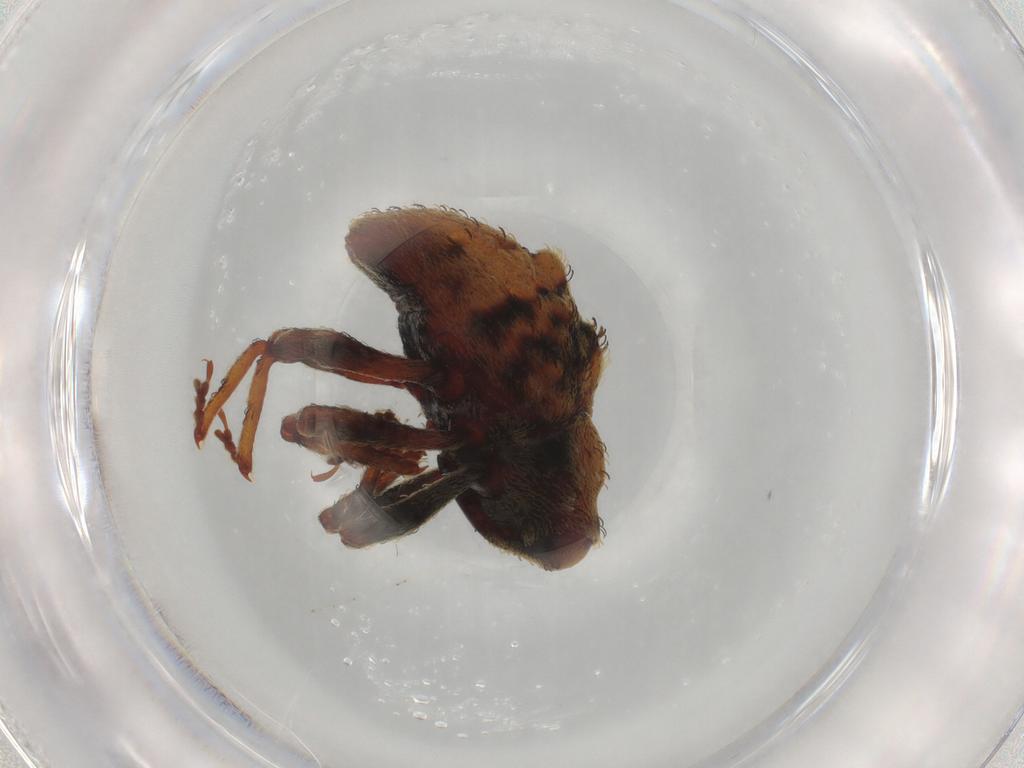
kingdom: Animalia
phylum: Arthropoda
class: Insecta
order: Coleoptera
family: Curculionidae
